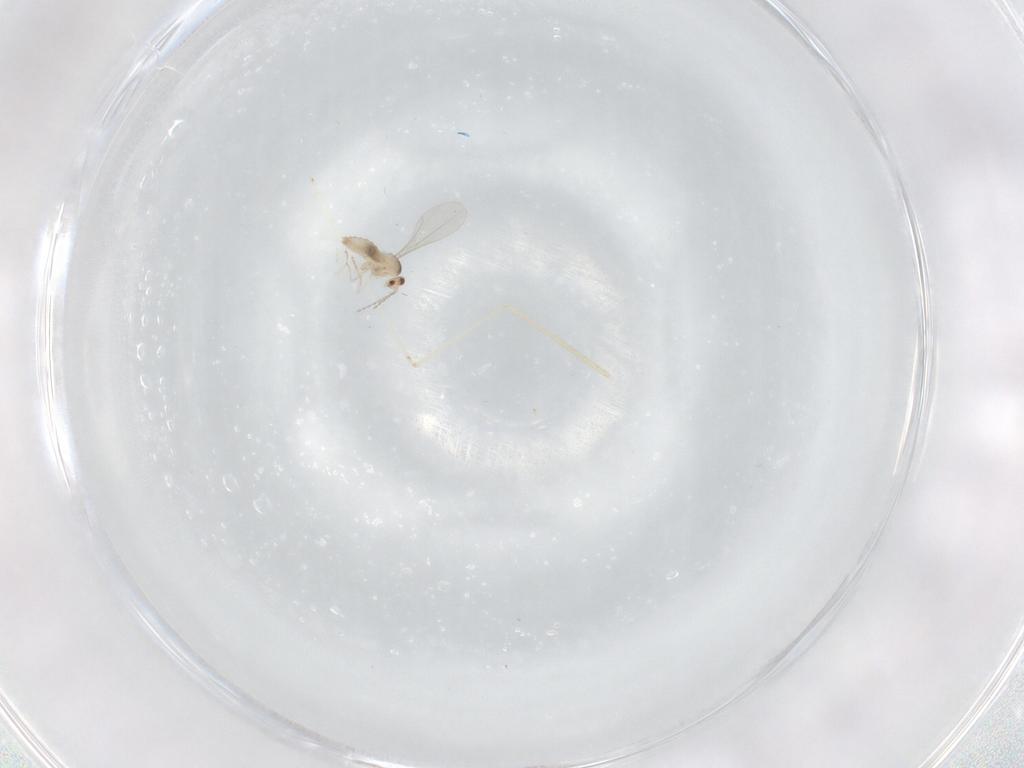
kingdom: Animalia
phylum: Arthropoda
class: Insecta
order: Diptera
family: Cecidomyiidae
